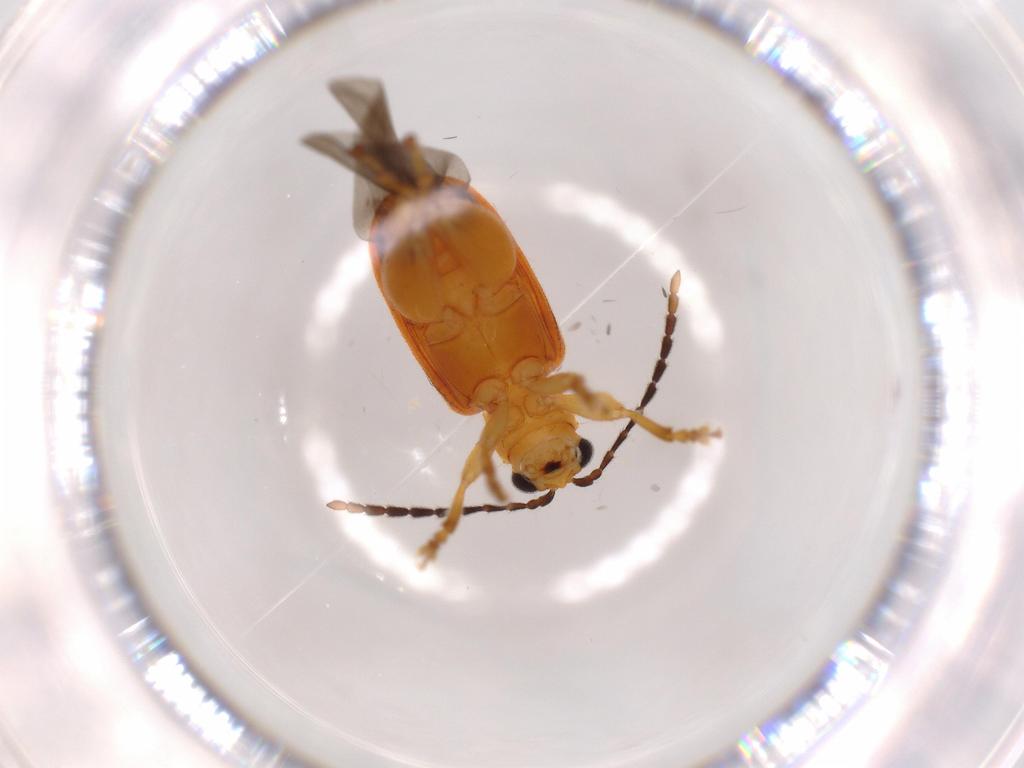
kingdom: Animalia
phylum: Arthropoda
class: Insecta
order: Coleoptera
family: Chrysomelidae
